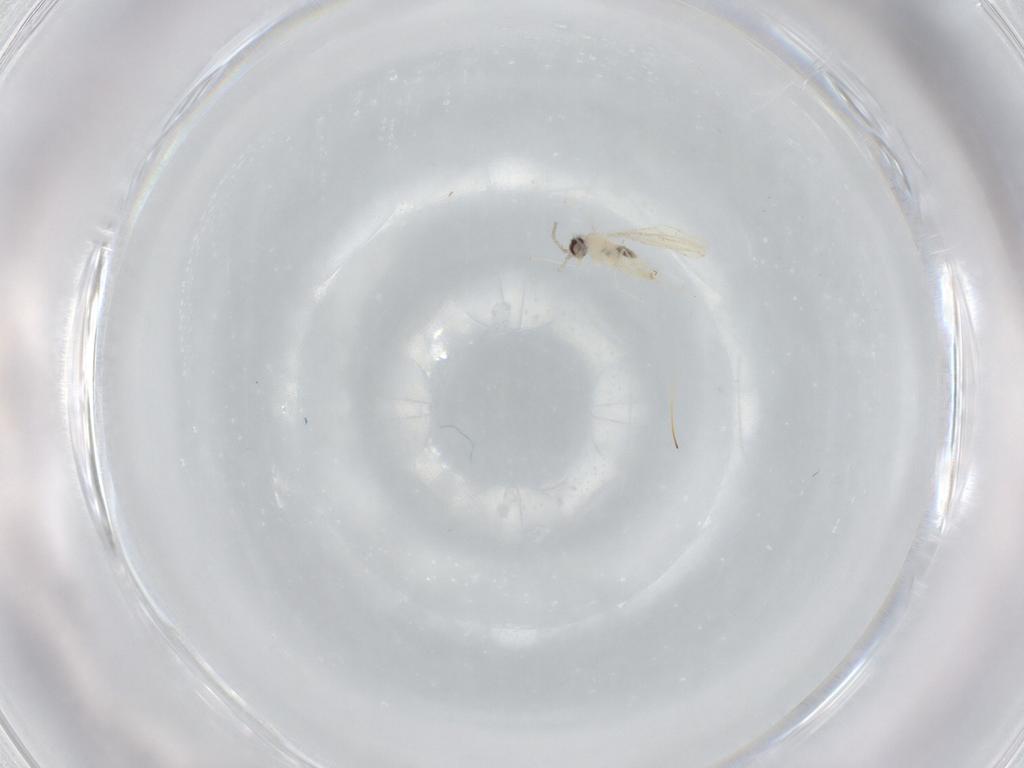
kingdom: Animalia
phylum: Arthropoda
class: Insecta
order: Diptera
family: Cecidomyiidae
